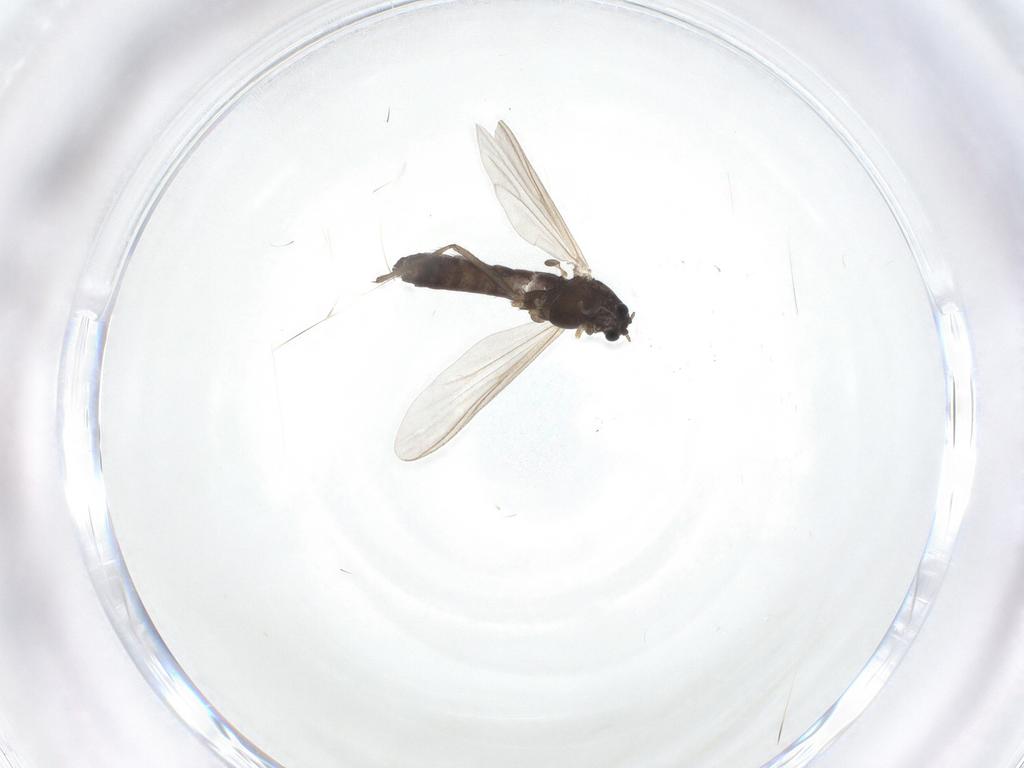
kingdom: Animalia
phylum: Arthropoda
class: Insecta
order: Diptera
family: Chironomidae
